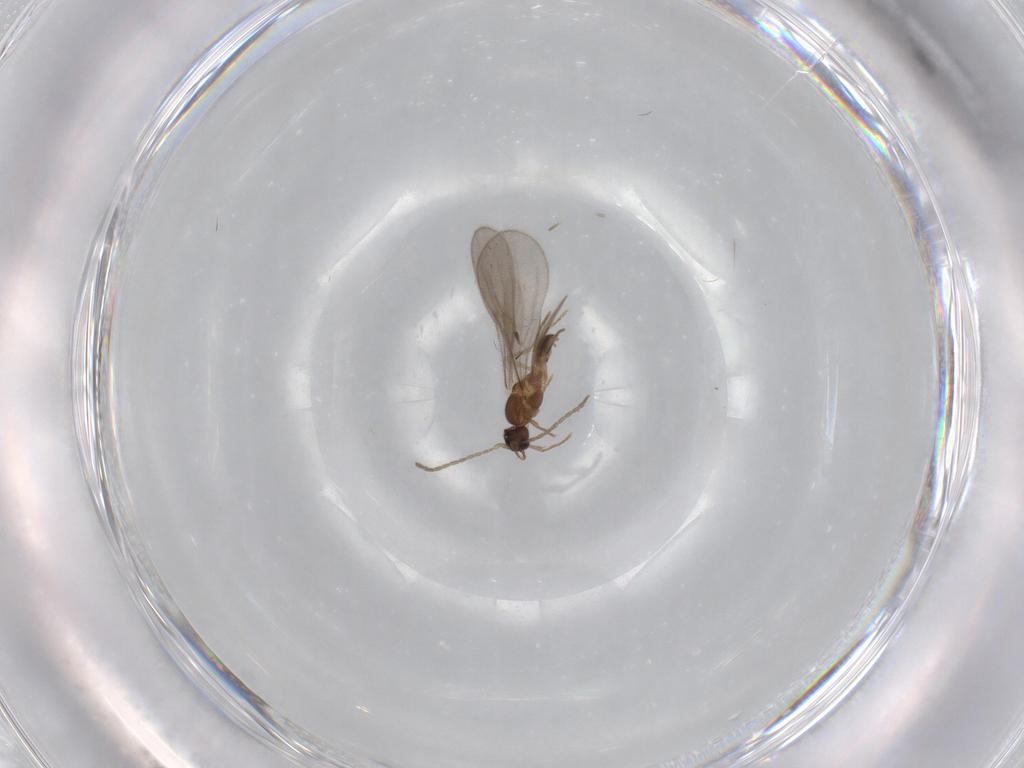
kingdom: Animalia
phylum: Arthropoda
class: Insecta
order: Hymenoptera
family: Formicidae
